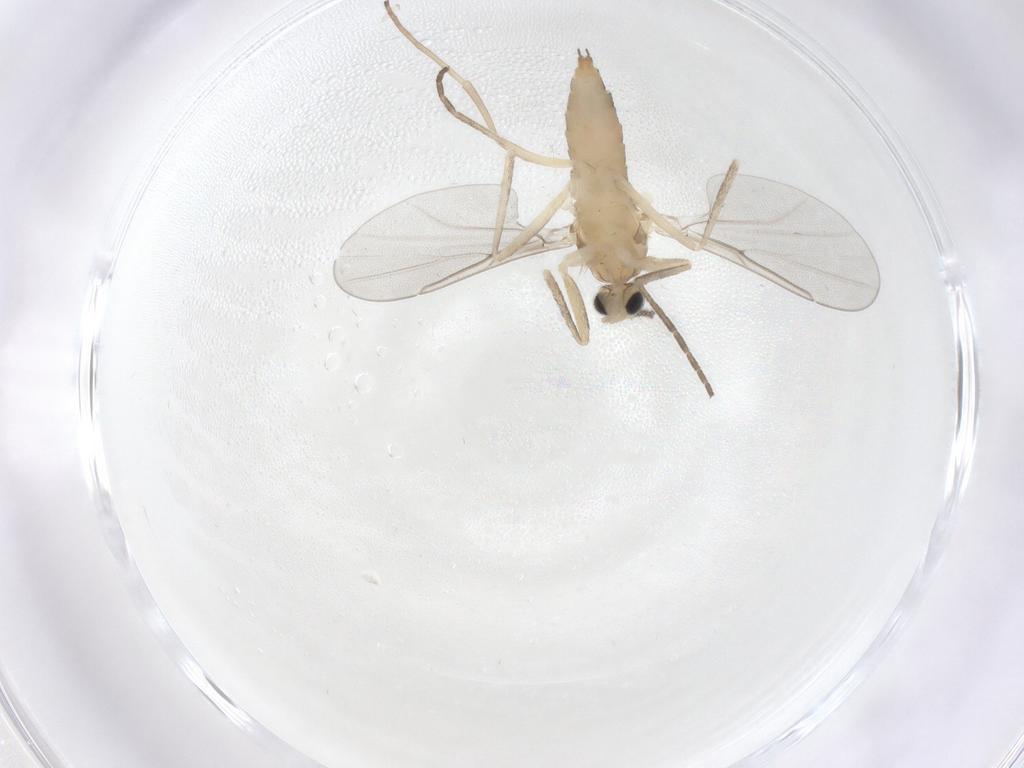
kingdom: Animalia
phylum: Arthropoda
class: Insecta
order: Diptera
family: Cecidomyiidae
